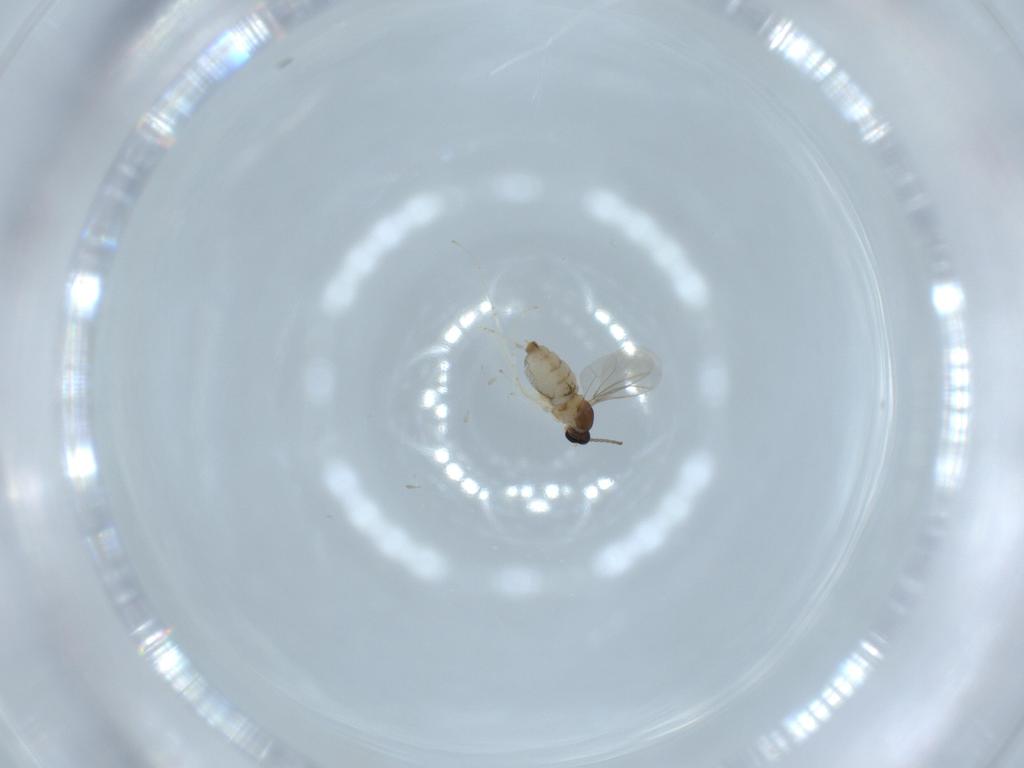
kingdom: Animalia
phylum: Arthropoda
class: Insecta
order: Diptera
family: Cecidomyiidae
